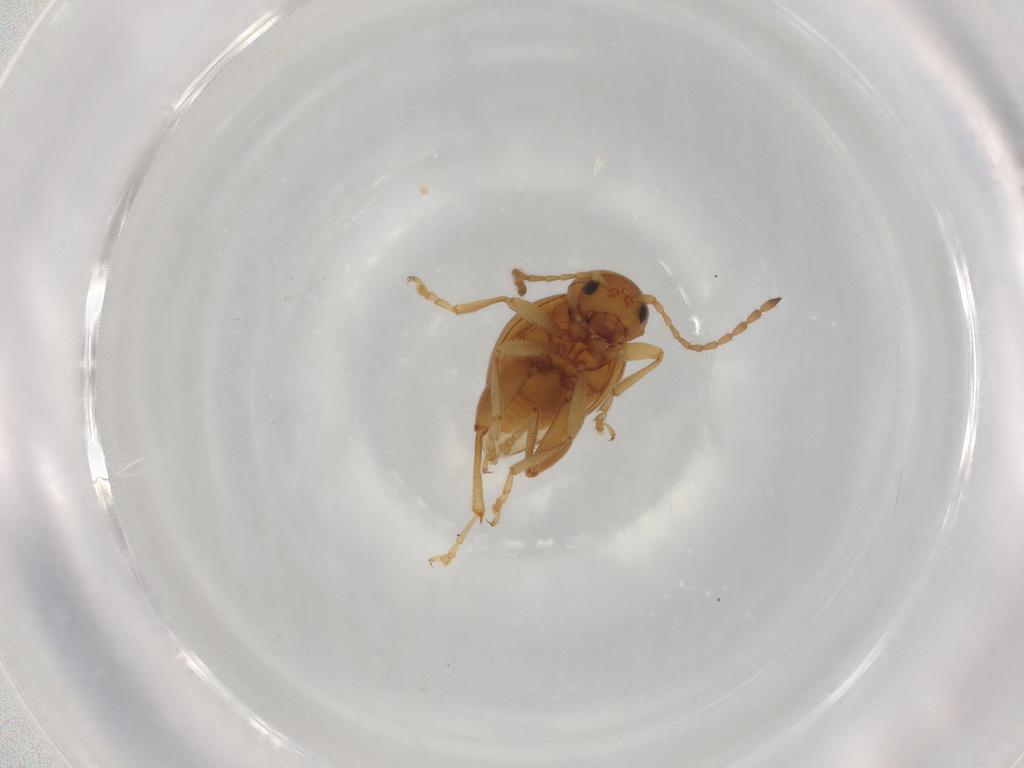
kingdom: Animalia
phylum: Arthropoda
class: Insecta
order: Coleoptera
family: Chrysomelidae
